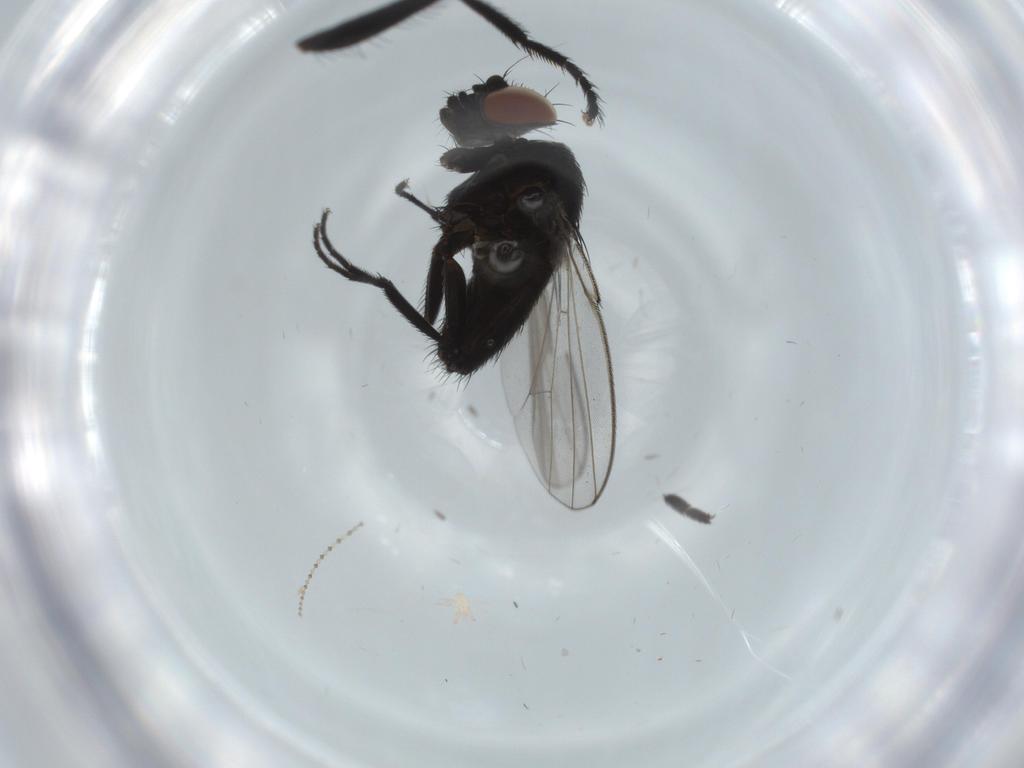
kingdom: Animalia
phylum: Arthropoda
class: Insecta
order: Diptera
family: Milichiidae
